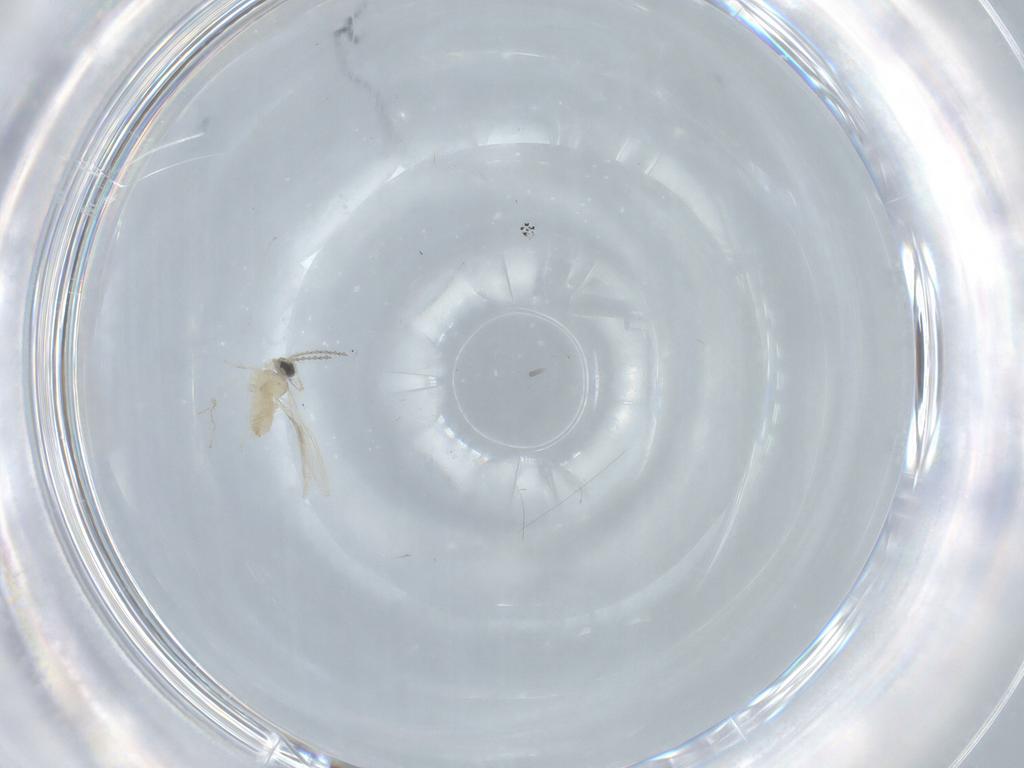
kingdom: Animalia
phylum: Arthropoda
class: Insecta
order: Diptera
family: Cecidomyiidae
